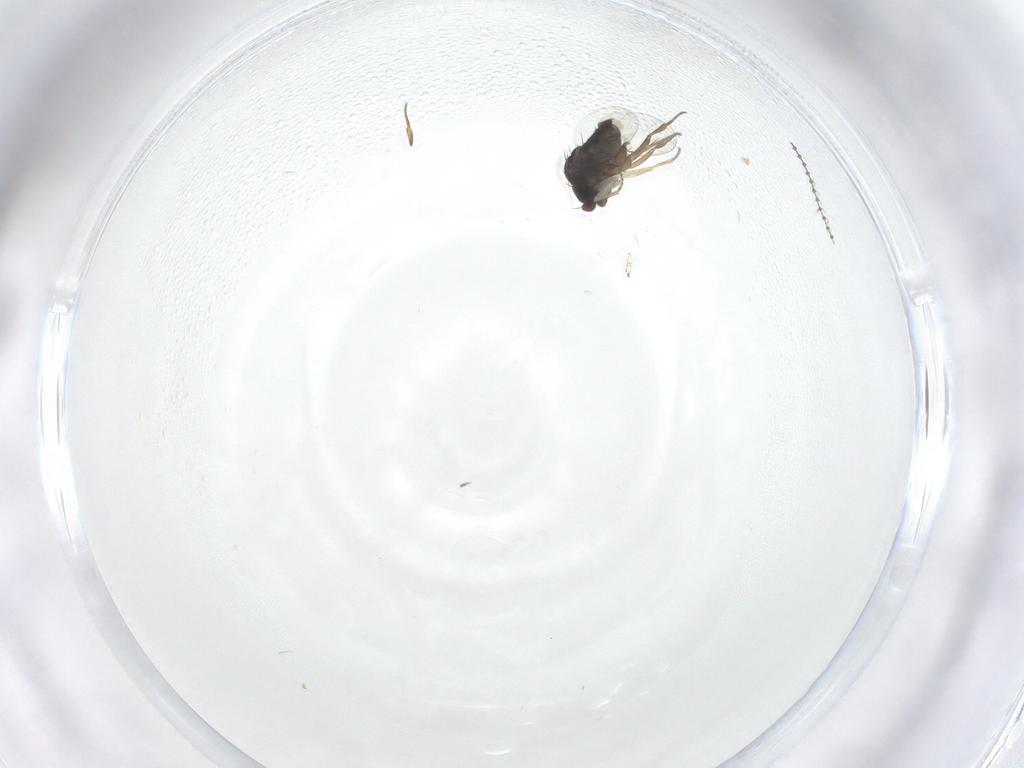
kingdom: Animalia
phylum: Arthropoda
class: Insecta
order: Diptera
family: Phoridae
